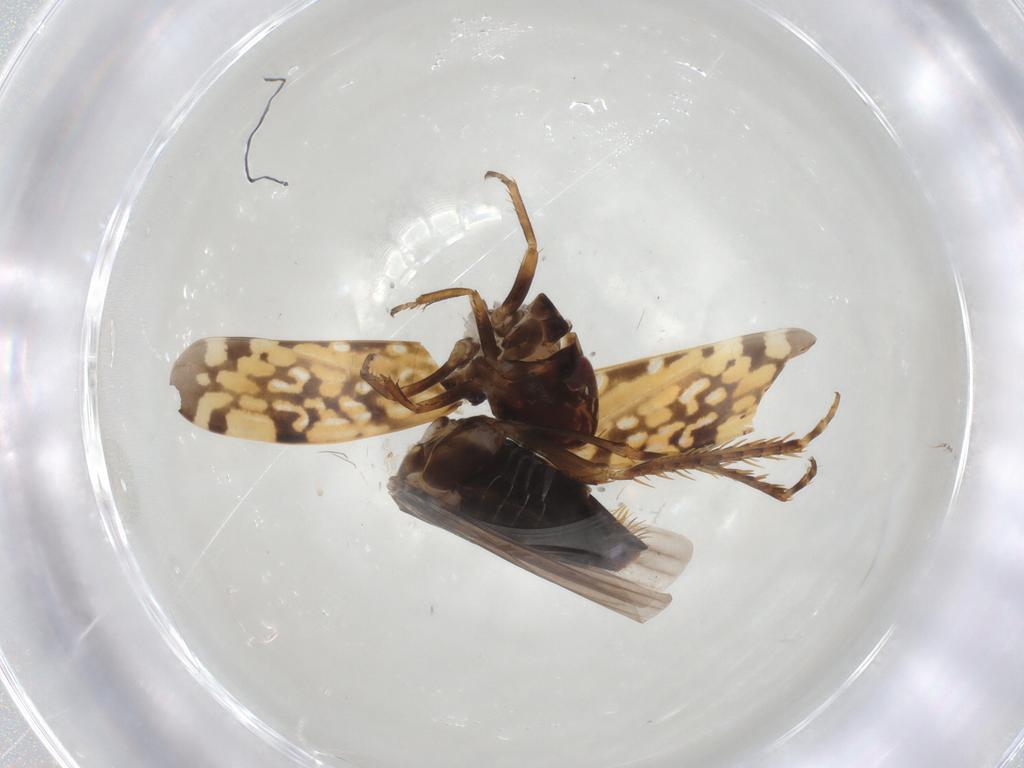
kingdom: Animalia
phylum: Arthropoda
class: Insecta
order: Hemiptera
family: Cicadellidae
